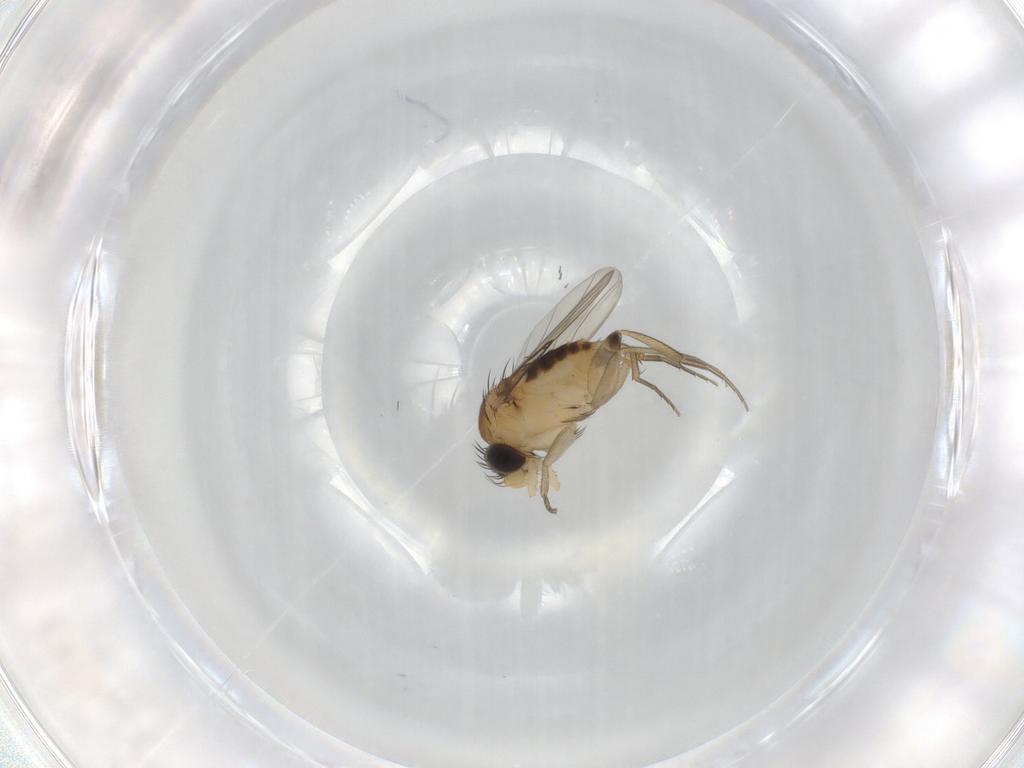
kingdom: Animalia
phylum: Arthropoda
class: Insecta
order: Diptera
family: Phoridae
